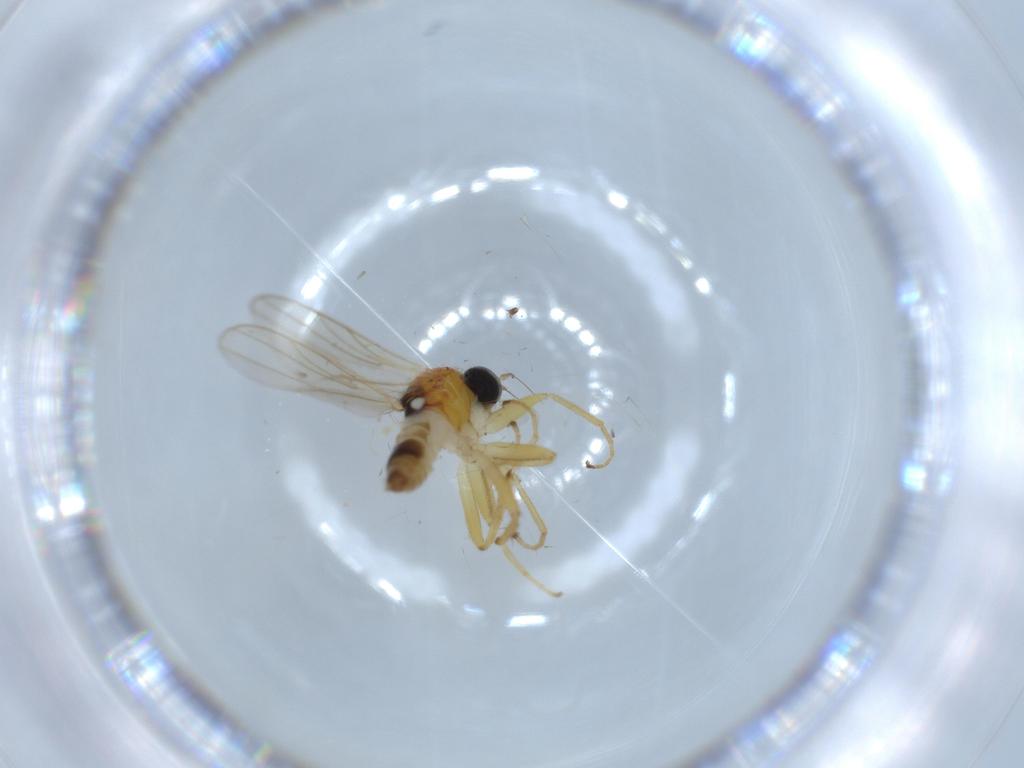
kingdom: Animalia
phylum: Arthropoda
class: Insecta
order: Diptera
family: Hybotidae
